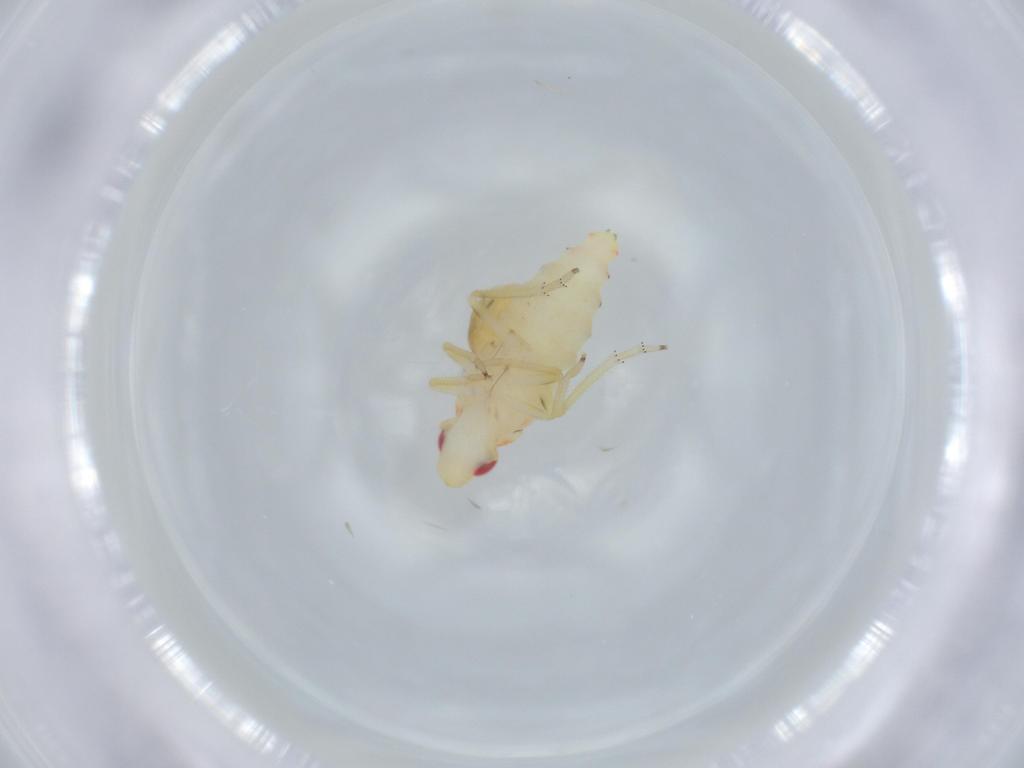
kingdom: Animalia
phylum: Arthropoda
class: Insecta
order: Hemiptera
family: Tropiduchidae
